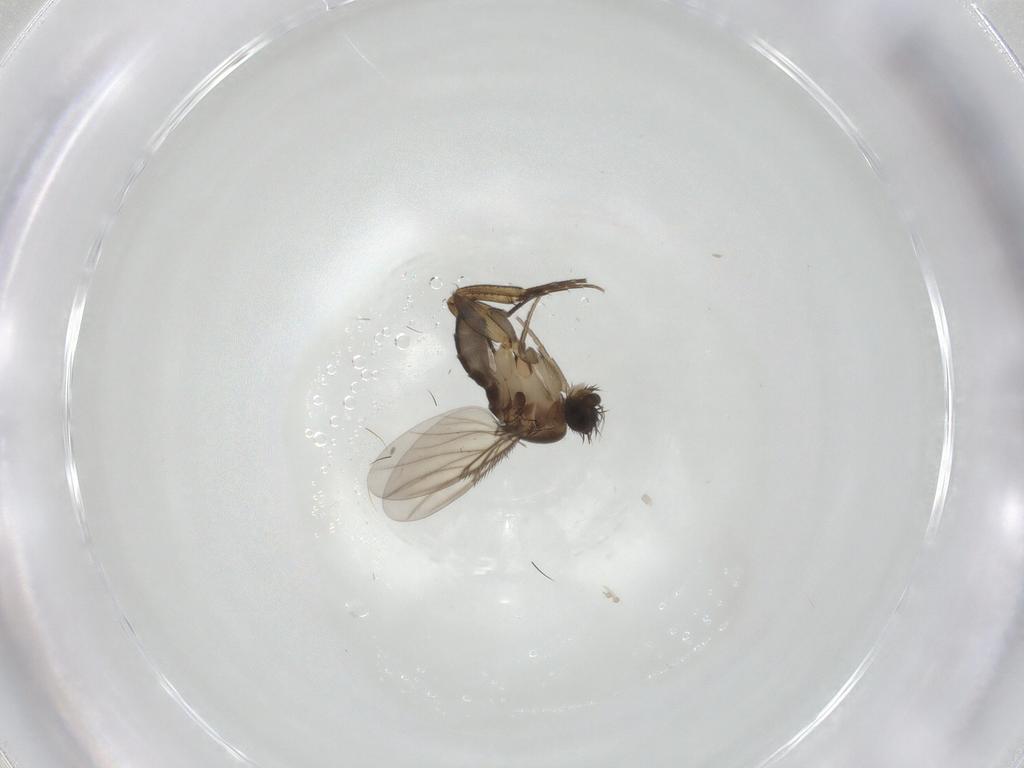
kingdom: Animalia
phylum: Arthropoda
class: Insecta
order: Diptera
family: Phoridae
